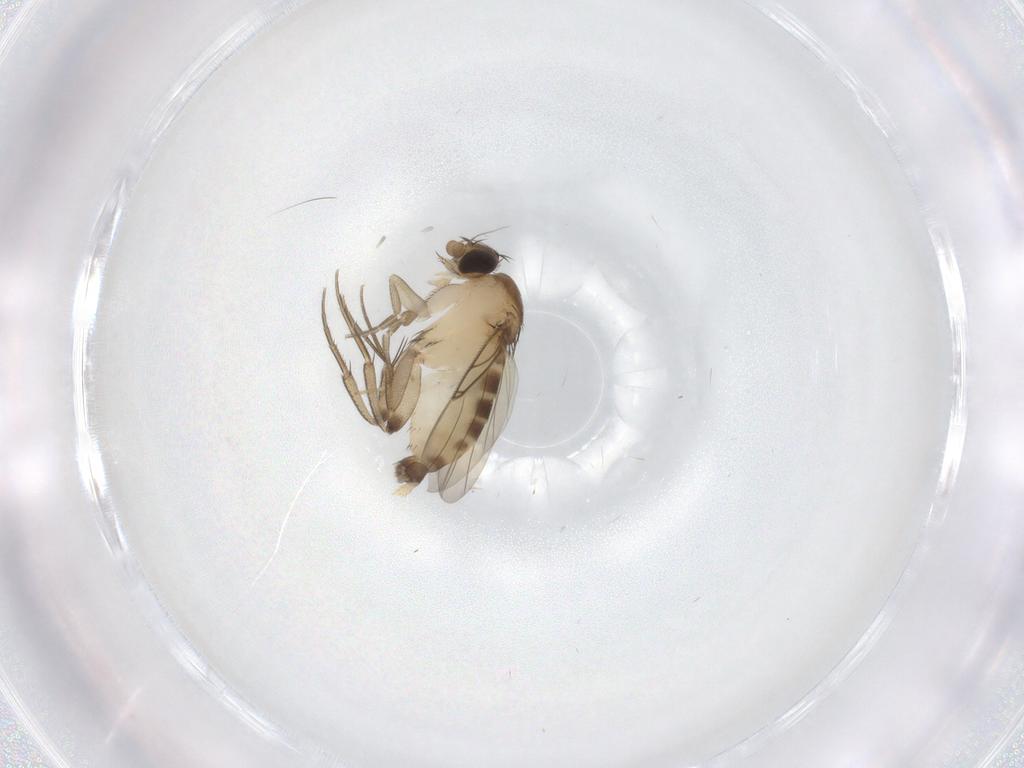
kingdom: Animalia
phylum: Arthropoda
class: Insecta
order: Diptera
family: Phoridae
